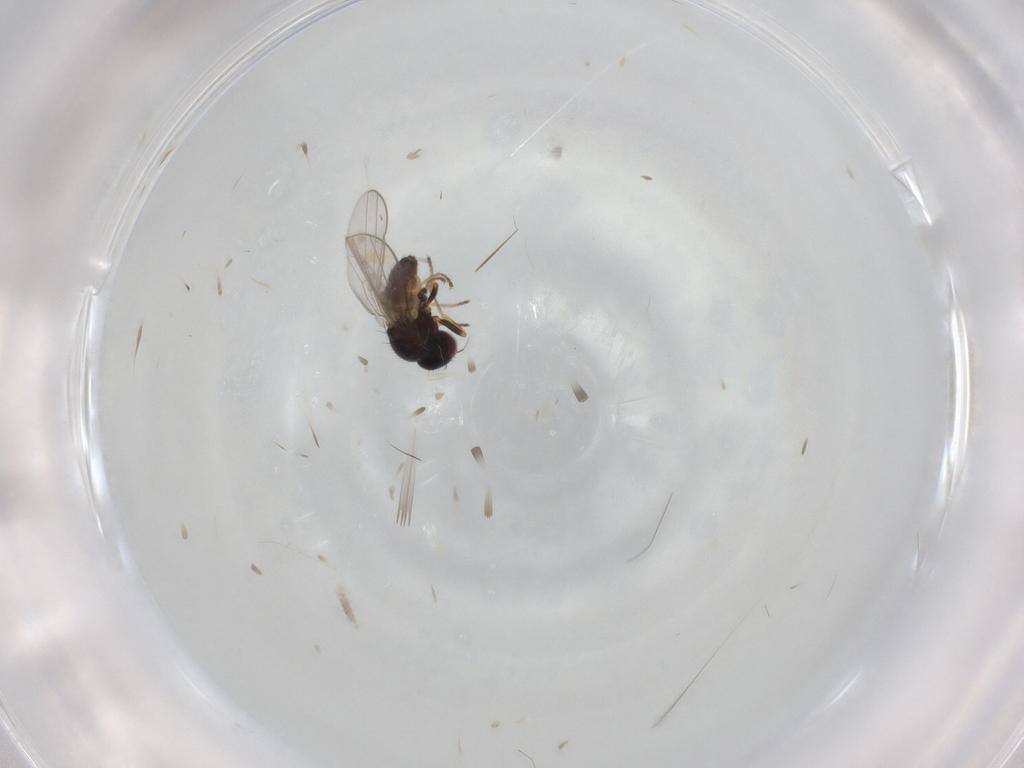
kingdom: Animalia
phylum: Arthropoda
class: Insecta
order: Diptera
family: Chloropidae
